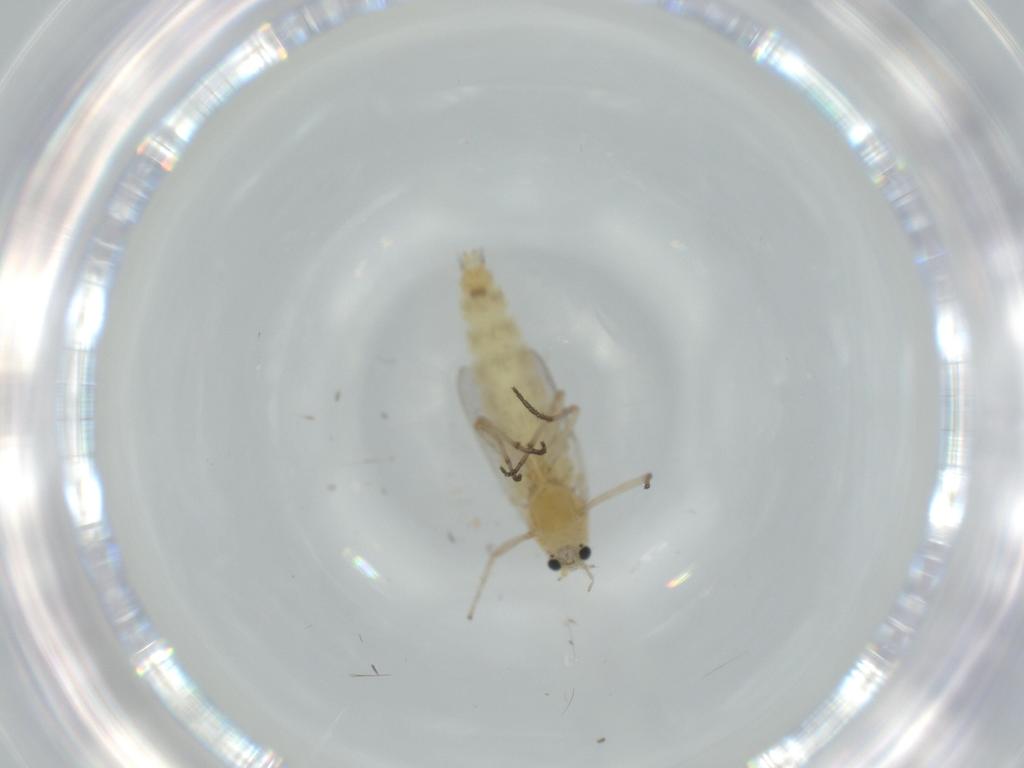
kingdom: Animalia
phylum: Arthropoda
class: Insecta
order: Diptera
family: Chironomidae
